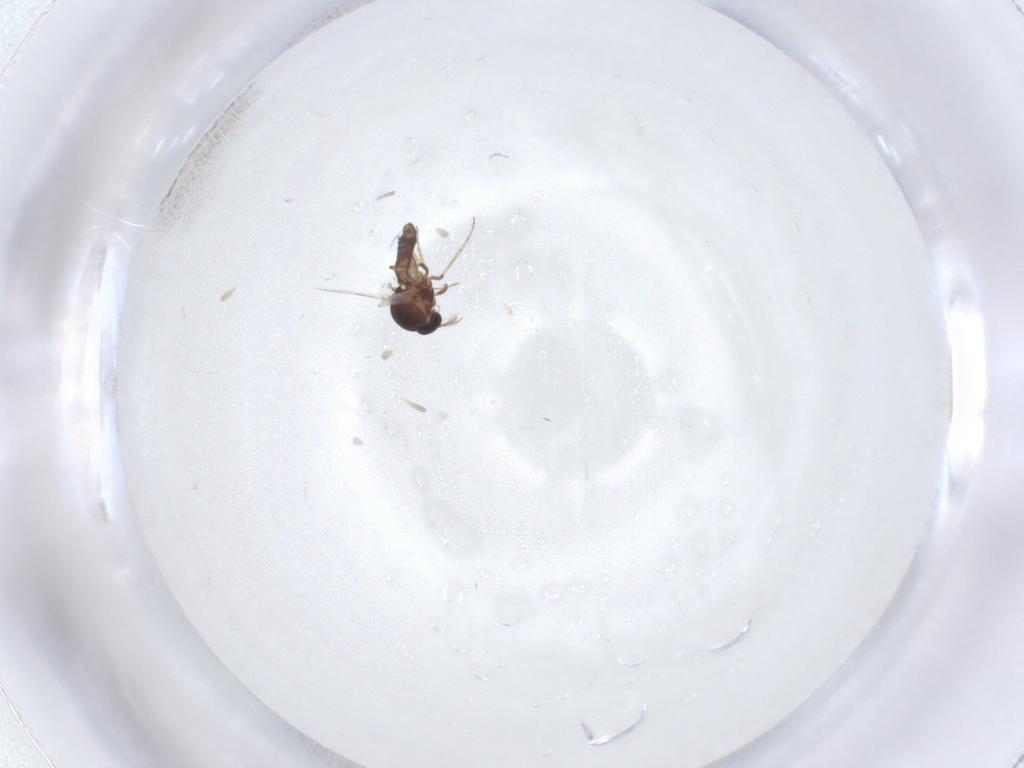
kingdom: Animalia
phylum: Arthropoda
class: Insecta
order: Diptera
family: Ceratopogonidae
